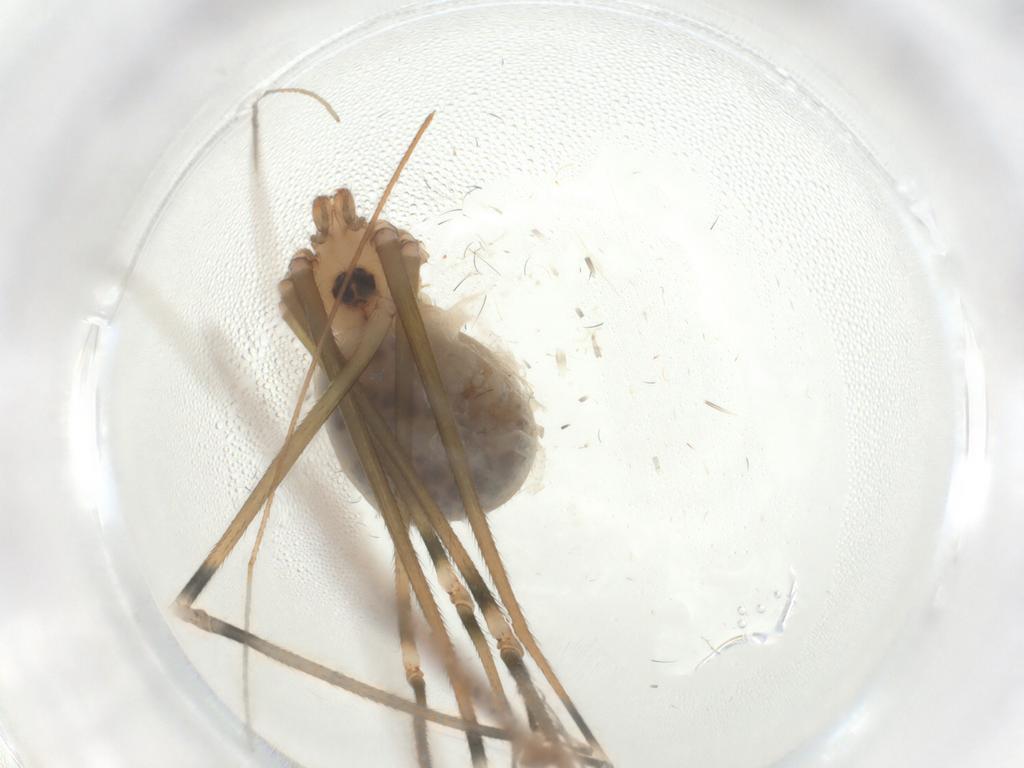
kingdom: Animalia
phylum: Arthropoda
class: Arachnida
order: Araneae
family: Pholcidae
